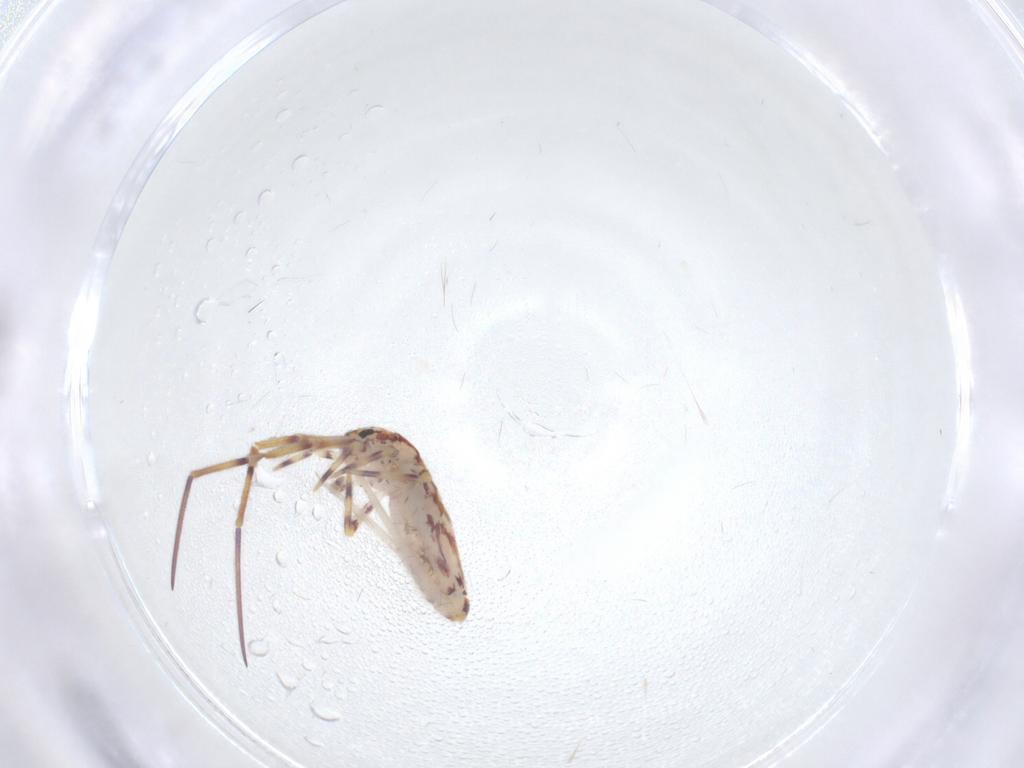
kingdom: Animalia
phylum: Arthropoda
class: Collembola
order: Entomobryomorpha
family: Entomobryidae
